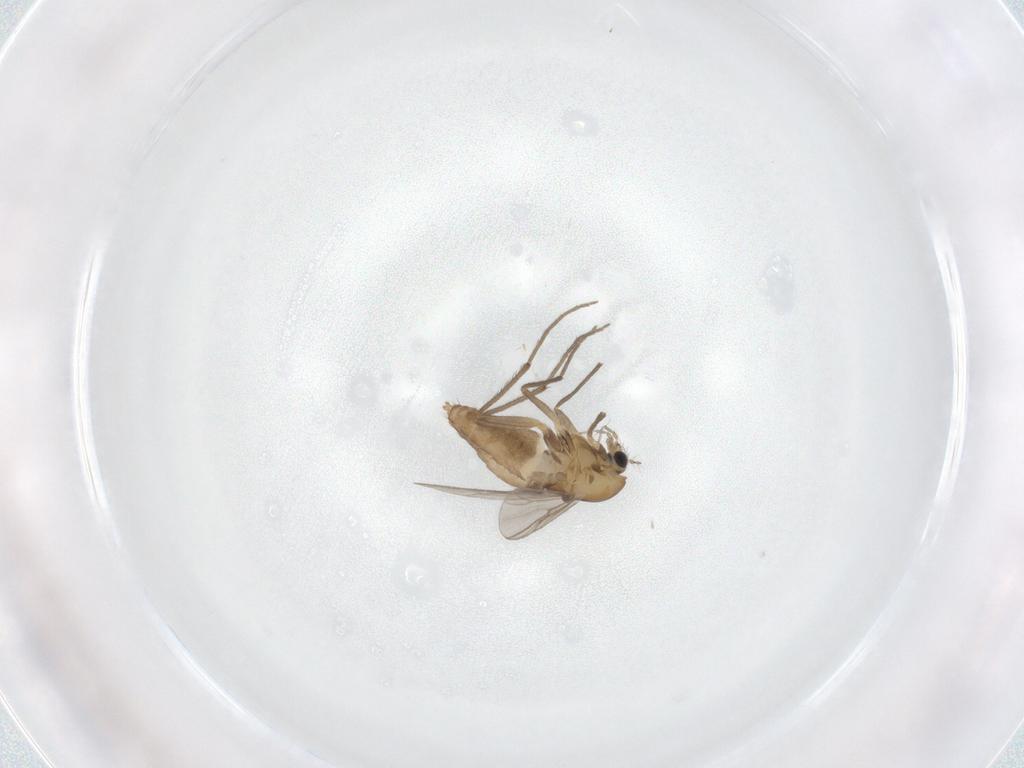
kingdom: Animalia
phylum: Arthropoda
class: Insecta
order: Diptera
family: Chironomidae
